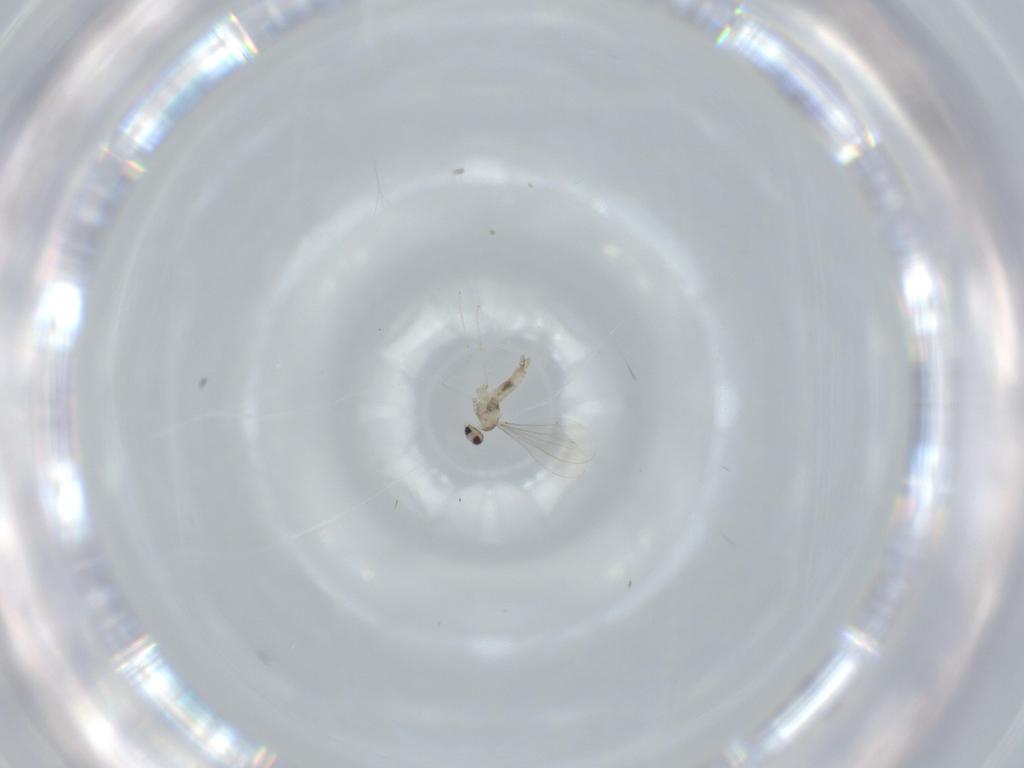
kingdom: Animalia
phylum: Arthropoda
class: Insecta
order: Diptera
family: Cecidomyiidae
